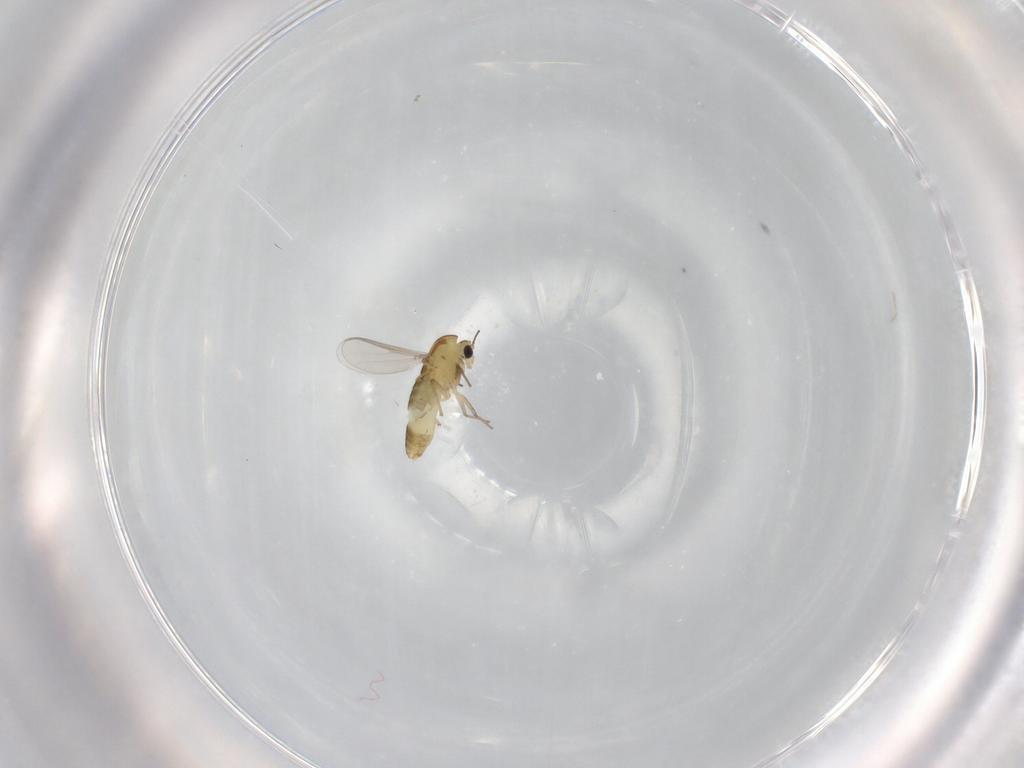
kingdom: Animalia
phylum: Arthropoda
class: Insecta
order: Diptera
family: Chironomidae
